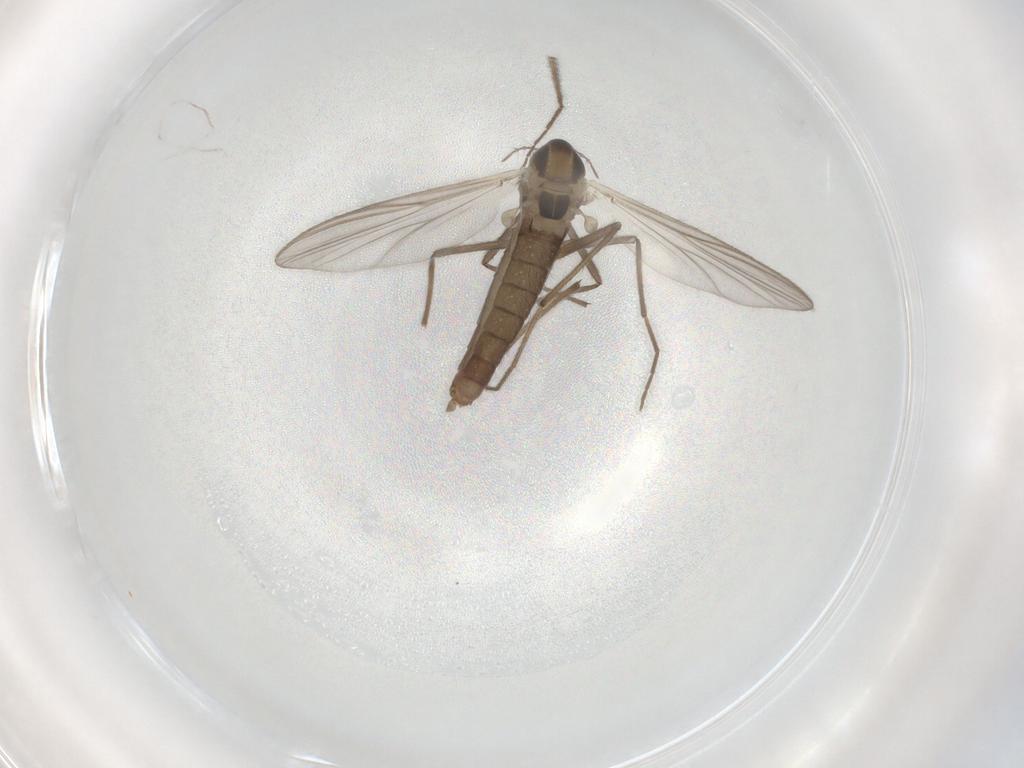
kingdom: Animalia
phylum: Arthropoda
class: Insecta
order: Diptera
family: Chironomidae
